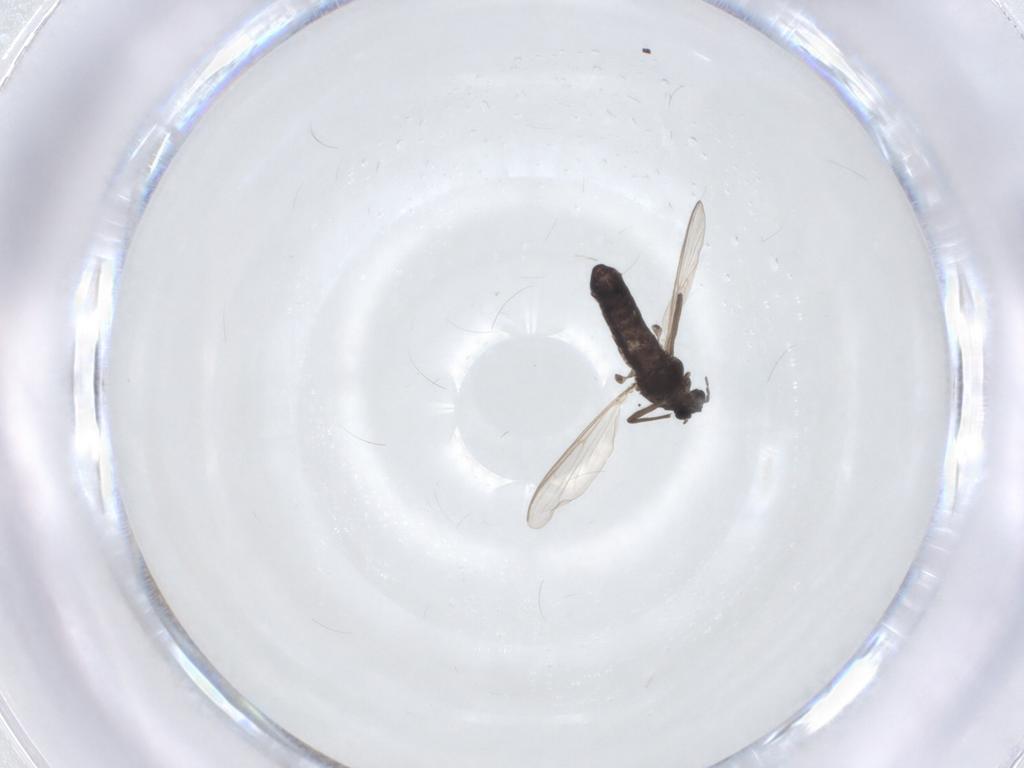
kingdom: Animalia
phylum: Arthropoda
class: Insecta
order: Diptera
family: Chironomidae
